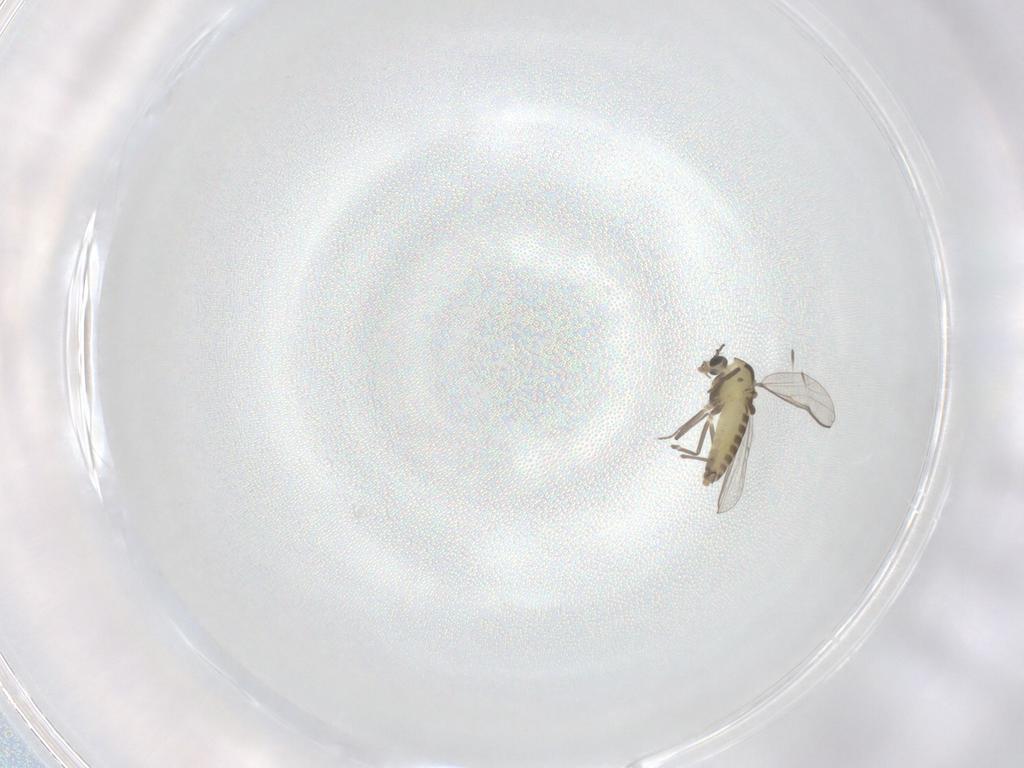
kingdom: Animalia
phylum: Arthropoda
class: Insecta
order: Diptera
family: Chironomidae
